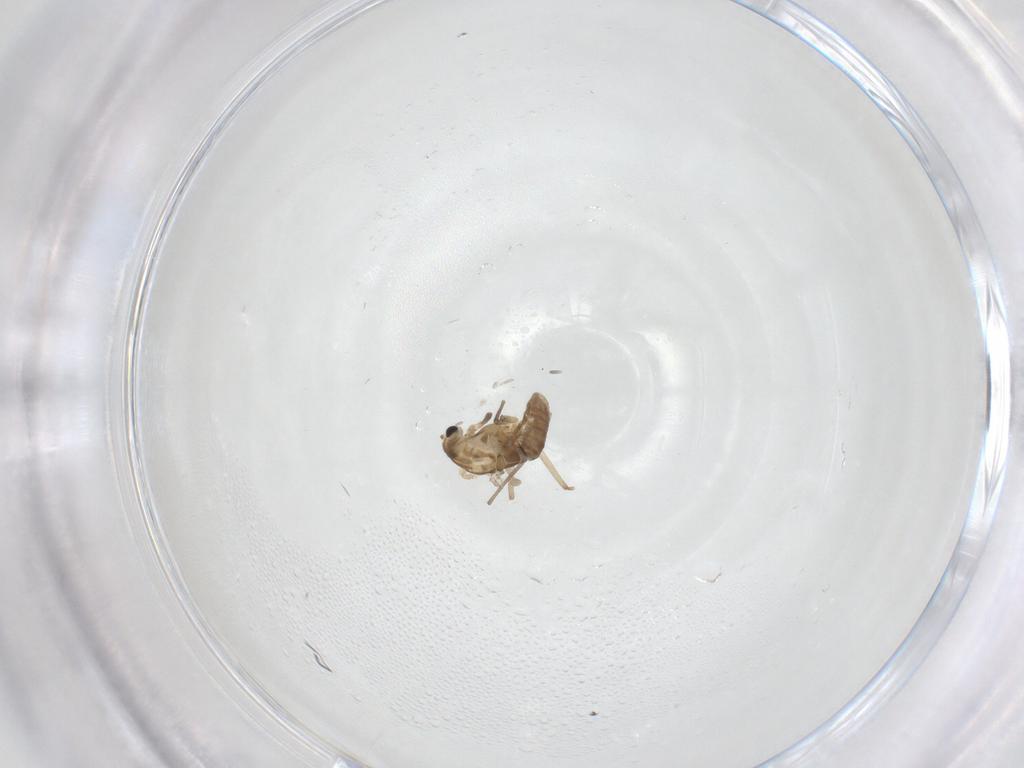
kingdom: Animalia
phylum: Arthropoda
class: Insecta
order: Diptera
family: Chironomidae
